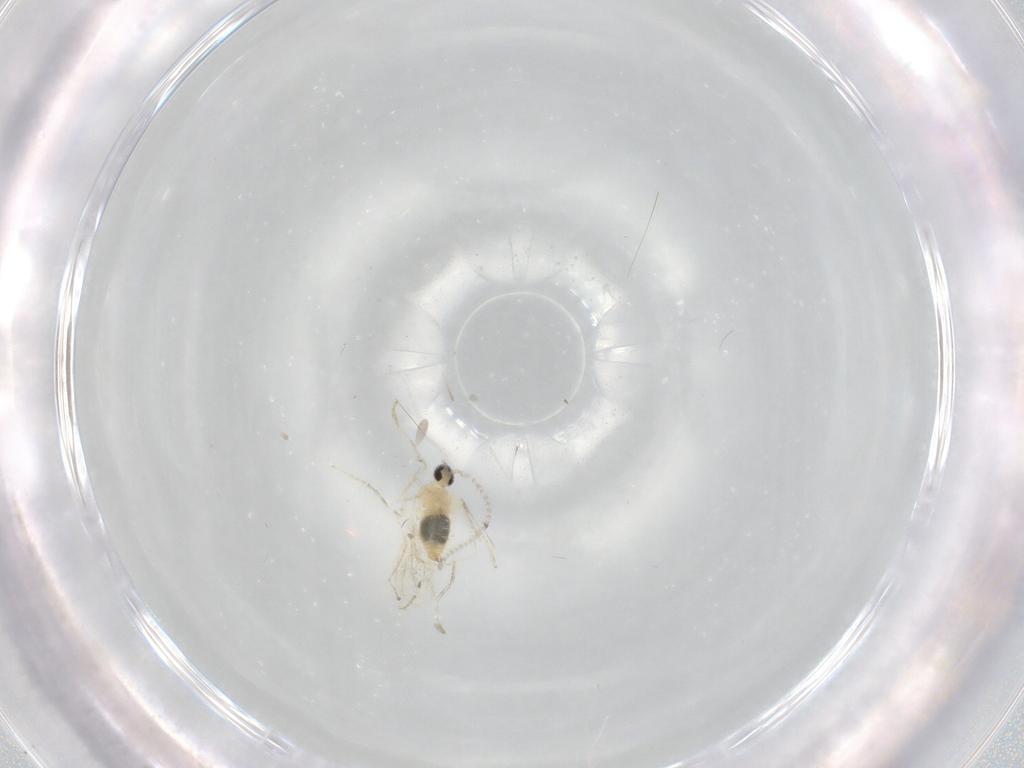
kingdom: Animalia
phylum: Arthropoda
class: Insecta
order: Diptera
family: Cecidomyiidae
